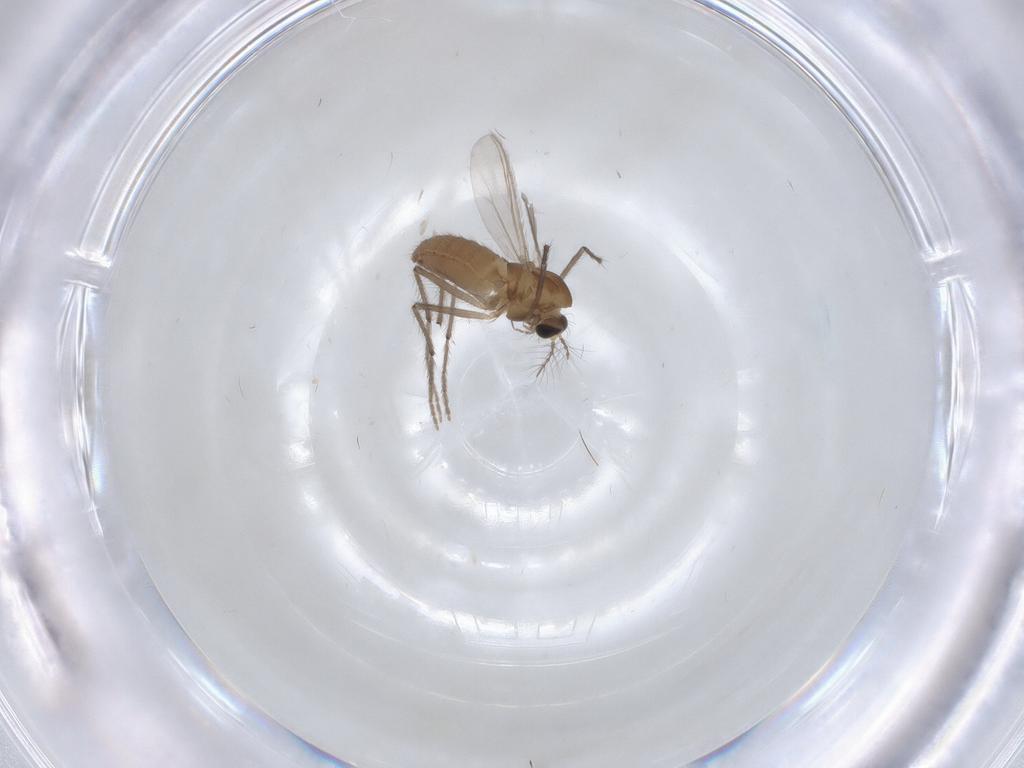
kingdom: Animalia
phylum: Arthropoda
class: Insecta
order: Diptera
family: Chironomidae
